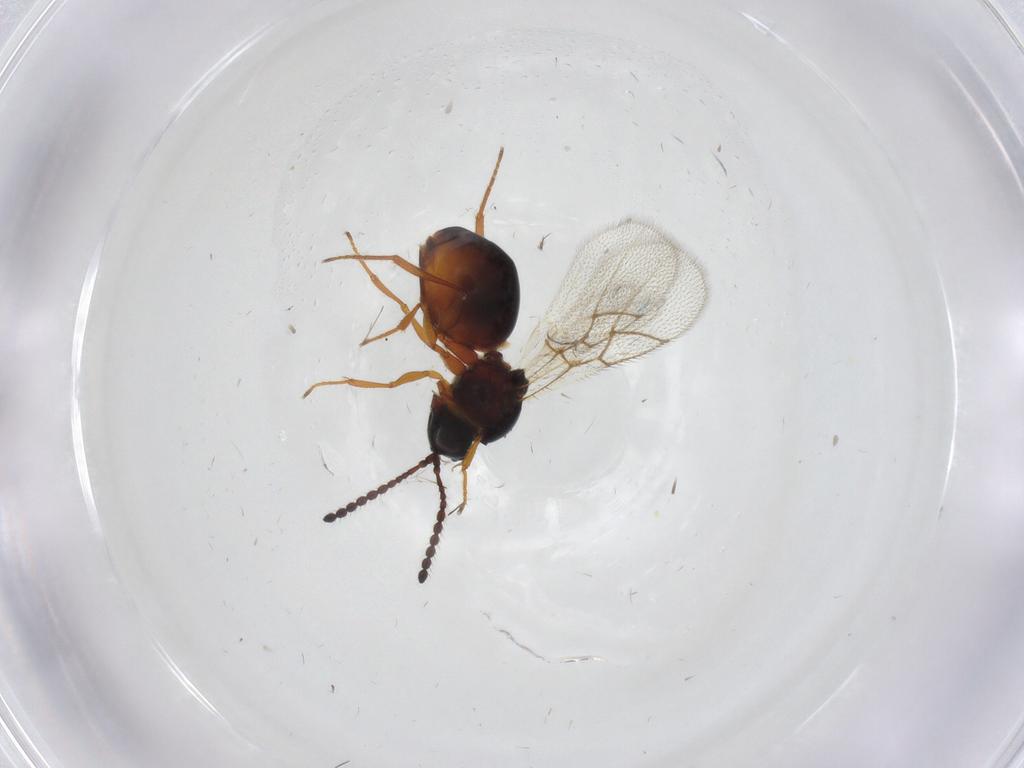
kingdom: Animalia
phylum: Arthropoda
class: Insecta
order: Hymenoptera
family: Figitidae
